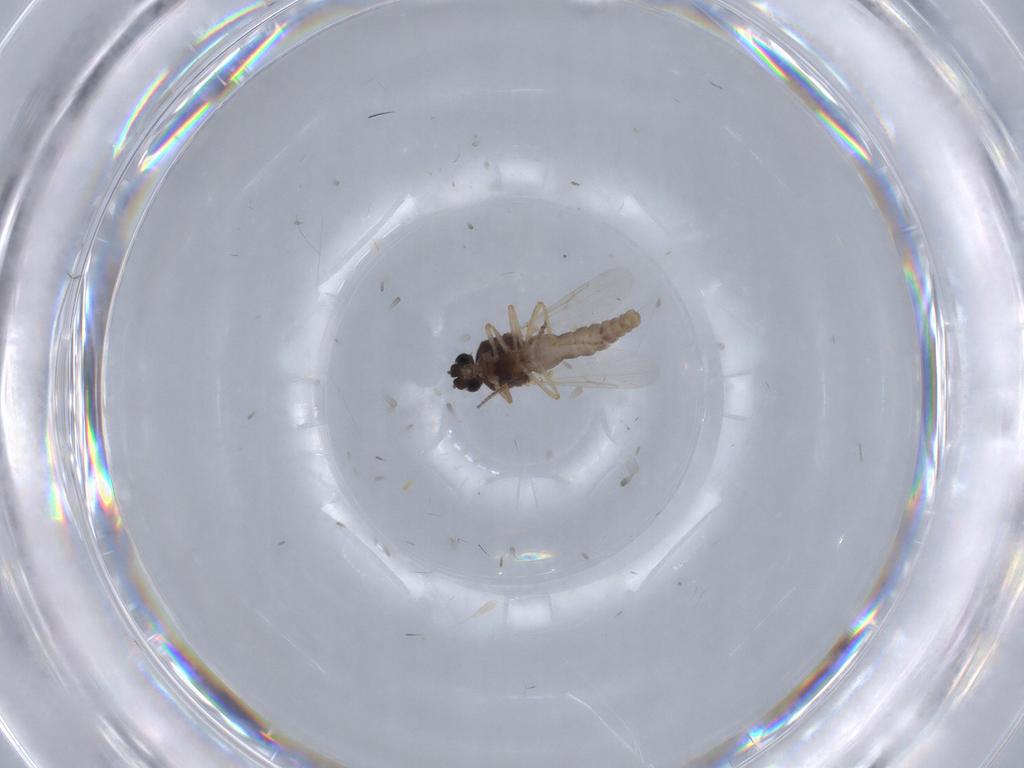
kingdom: Animalia
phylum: Arthropoda
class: Insecta
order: Diptera
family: Ceratopogonidae
